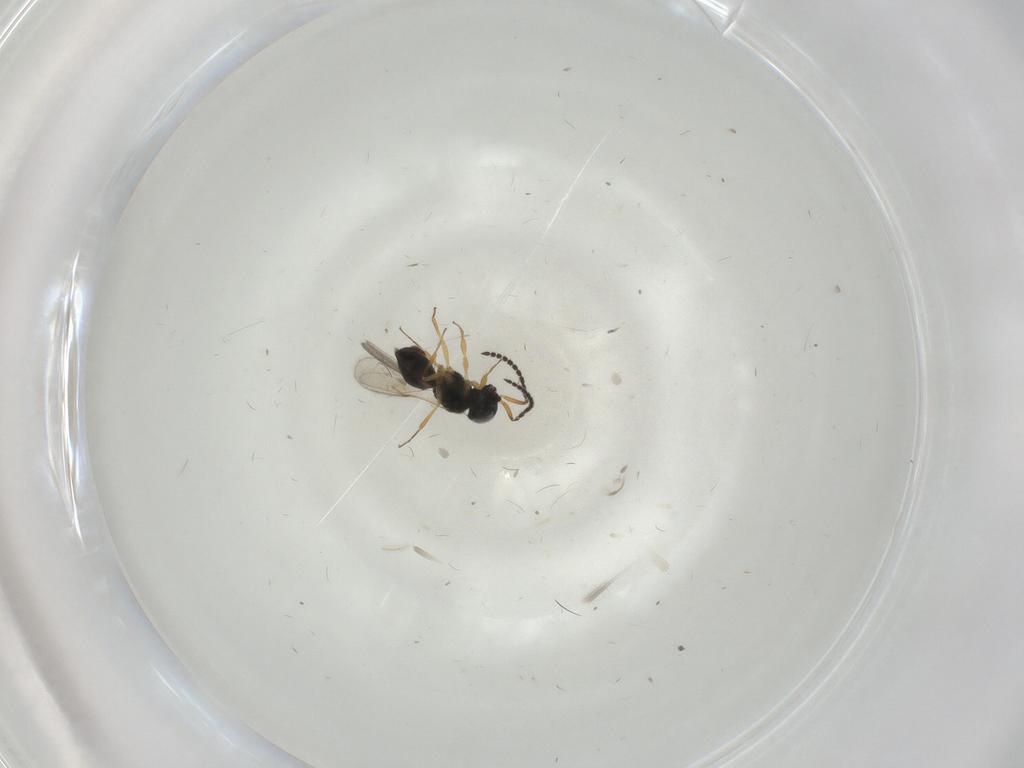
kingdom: Animalia
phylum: Arthropoda
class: Insecta
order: Hymenoptera
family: Scelionidae
